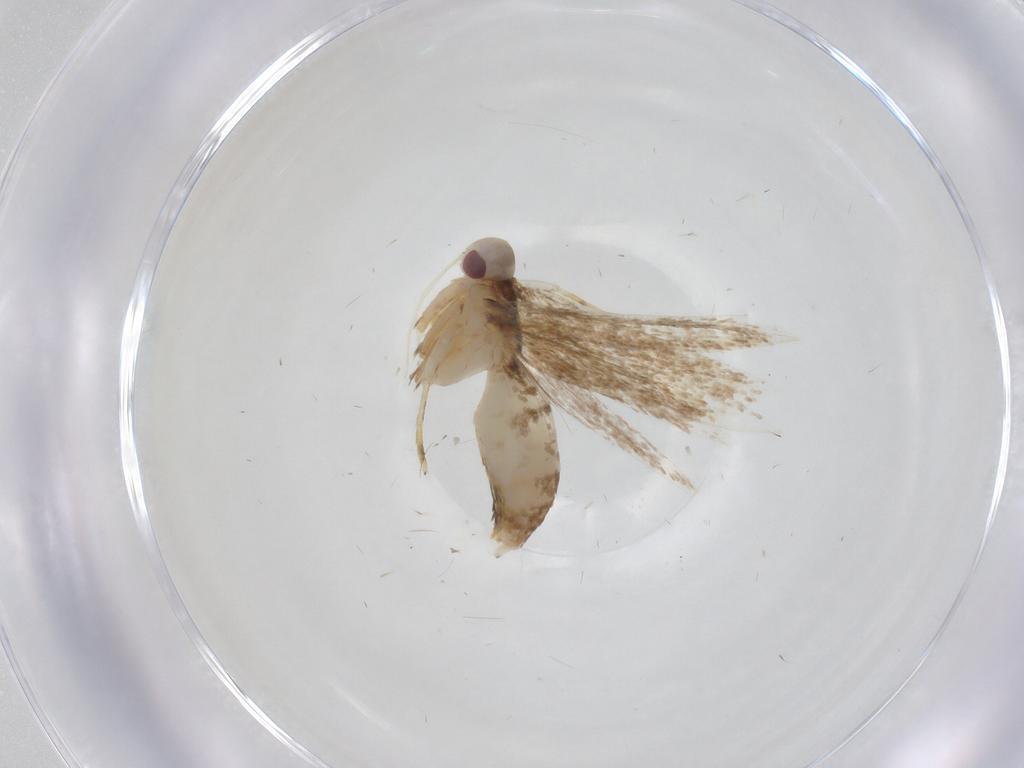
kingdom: Animalia
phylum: Arthropoda
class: Insecta
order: Lepidoptera
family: Cosmopterigidae
